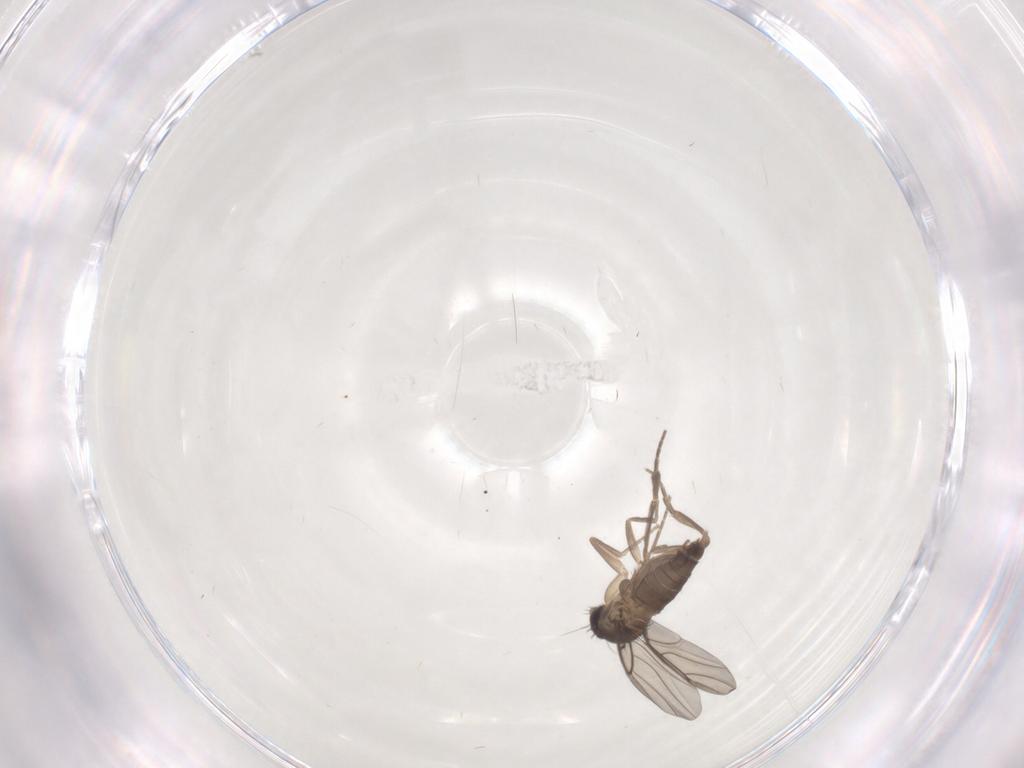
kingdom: Animalia
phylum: Arthropoda
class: Insecta
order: Diptera
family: Phoridae
